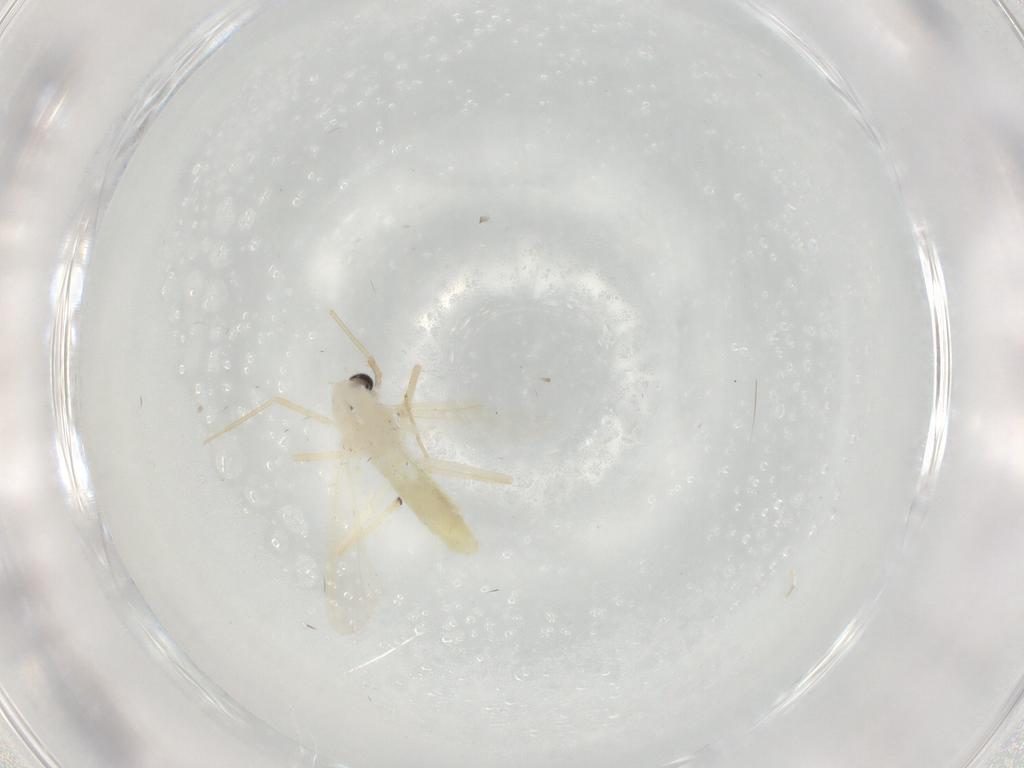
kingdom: Animalia
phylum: Arthropoda
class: Insecta
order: Diptera
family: Chironomidae
